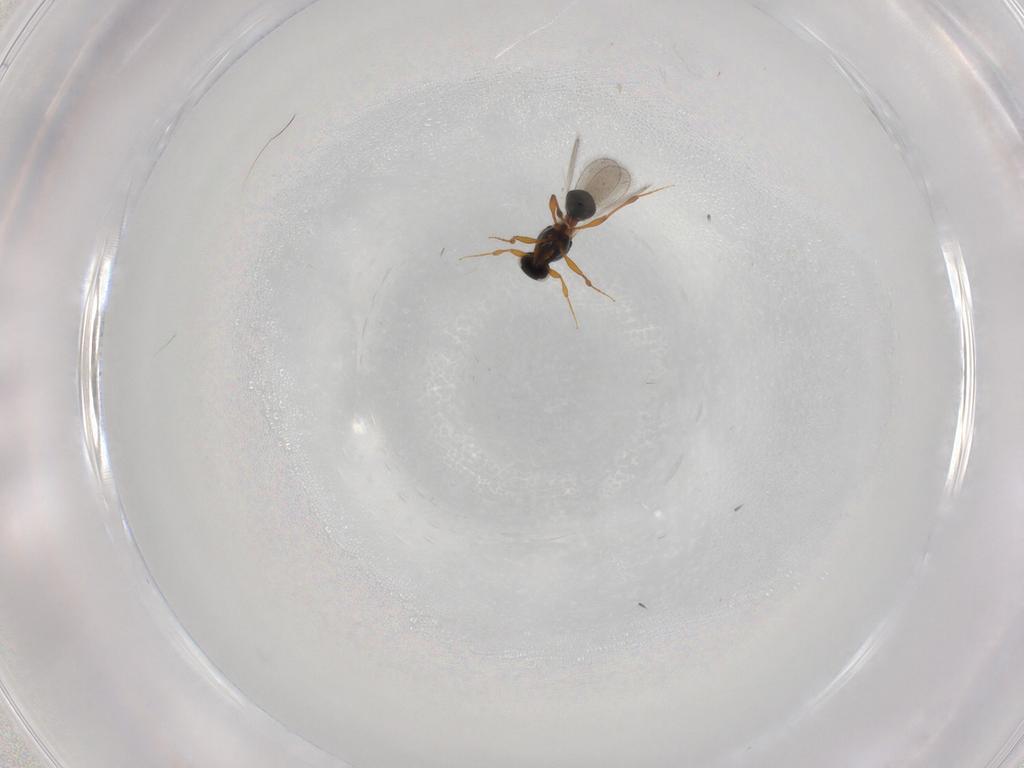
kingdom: Animalia
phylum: Arthropoda
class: Insecta
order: Hymenoptera
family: Platygastridae
